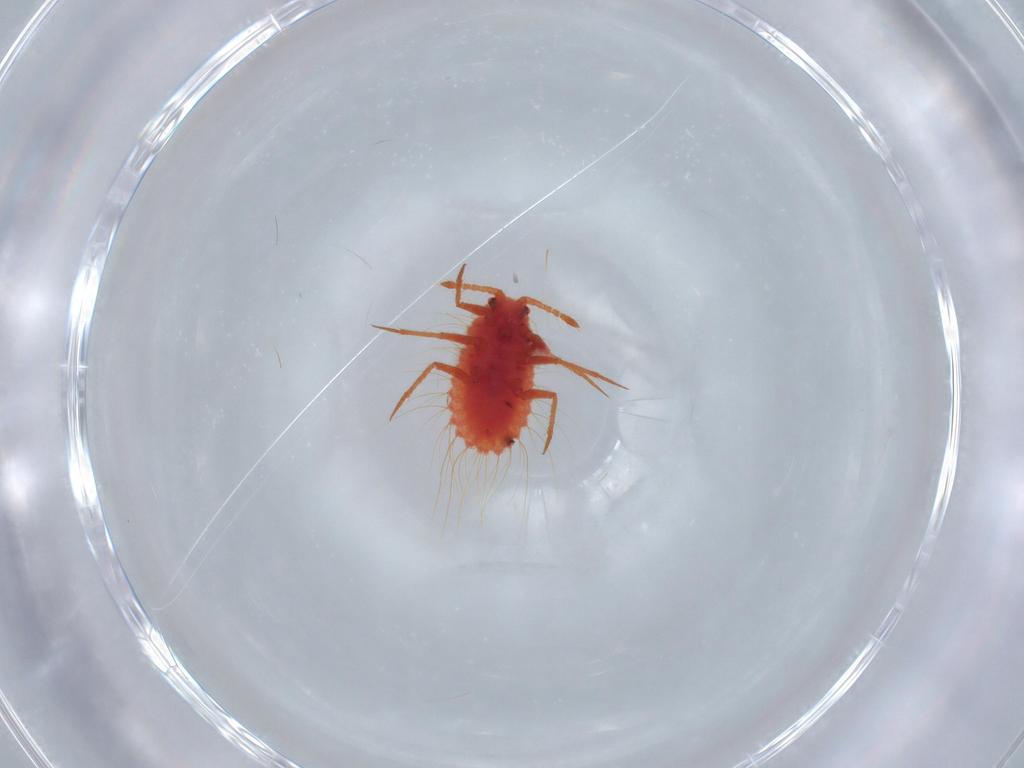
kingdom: Animalia
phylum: Arthropoda
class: Insecta
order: Hemiptera
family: Monophlebidae
